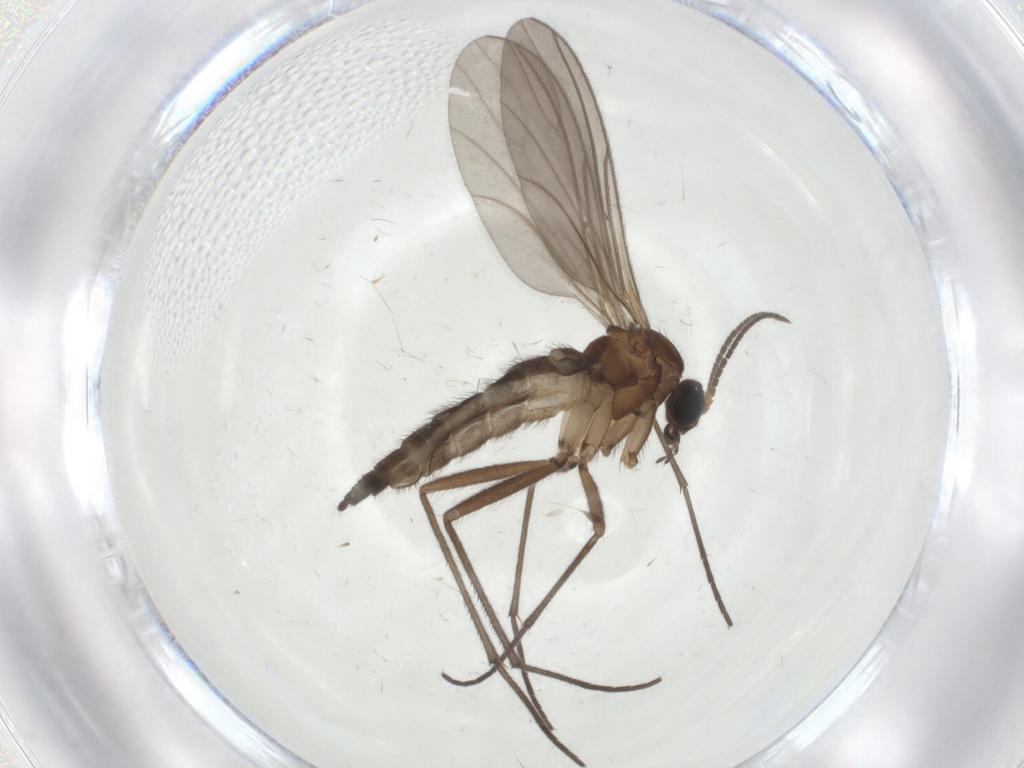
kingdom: Animalia
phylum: Arthropoda
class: Insecta
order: Diptera
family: Sciaridae
